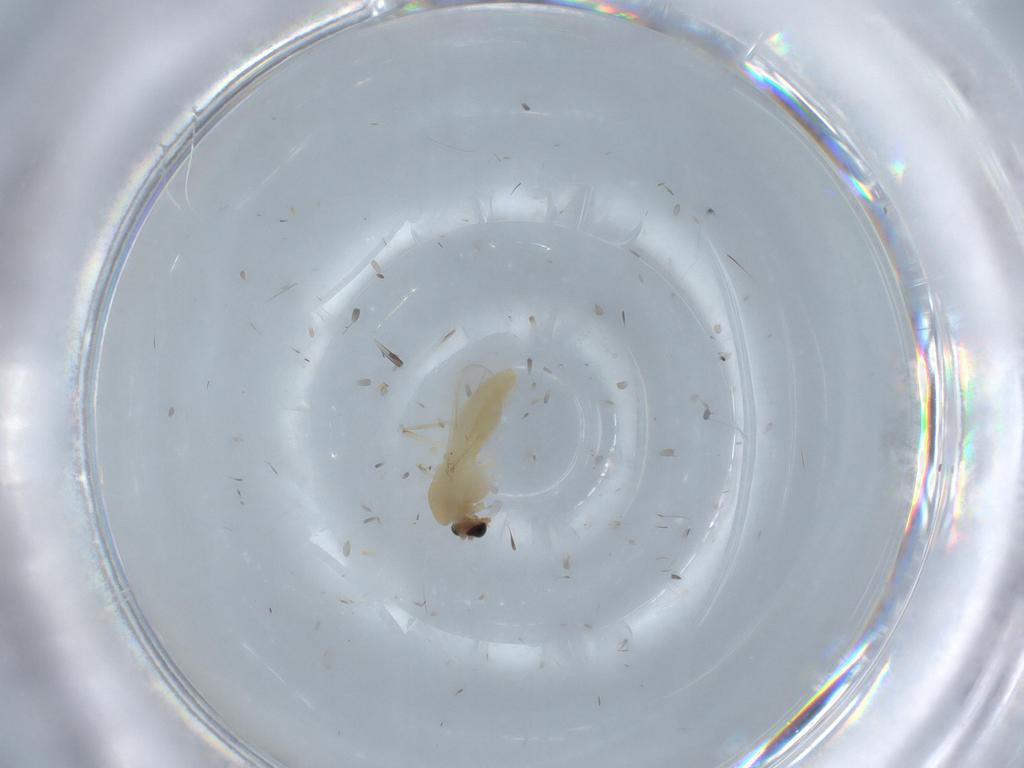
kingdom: Animalia
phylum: Arthropoda
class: Insecta
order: Diptera
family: Chironomidae
